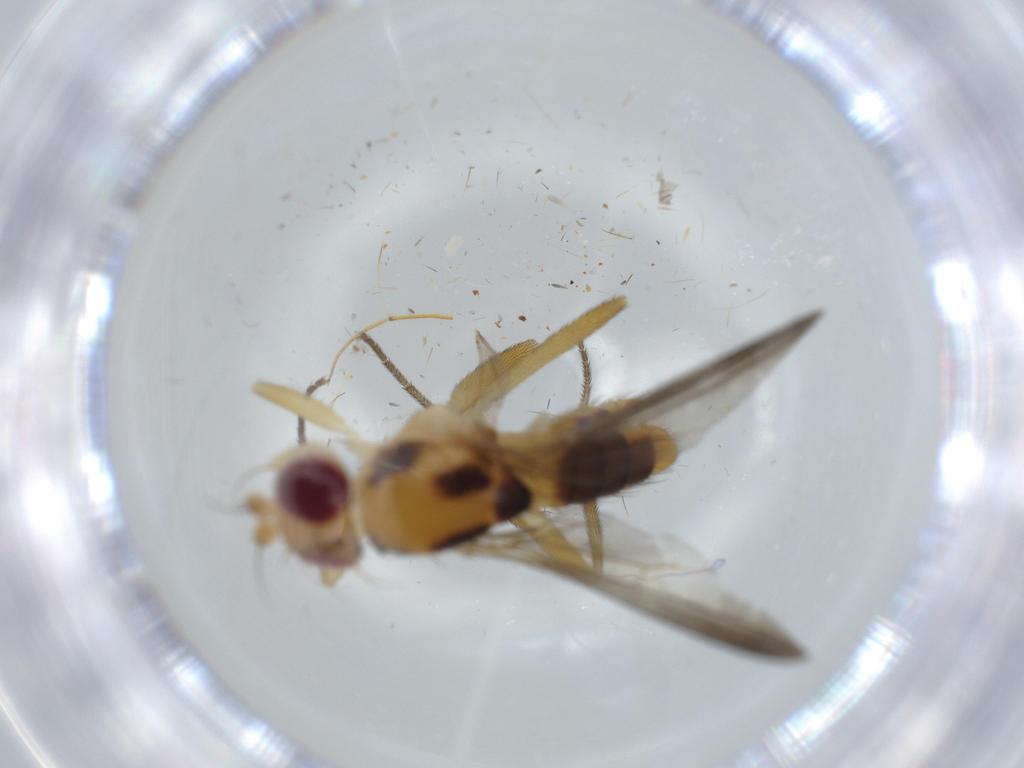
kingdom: Animalia
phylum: Arthropoda
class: Insecta
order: Diptera
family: Clusiidae
